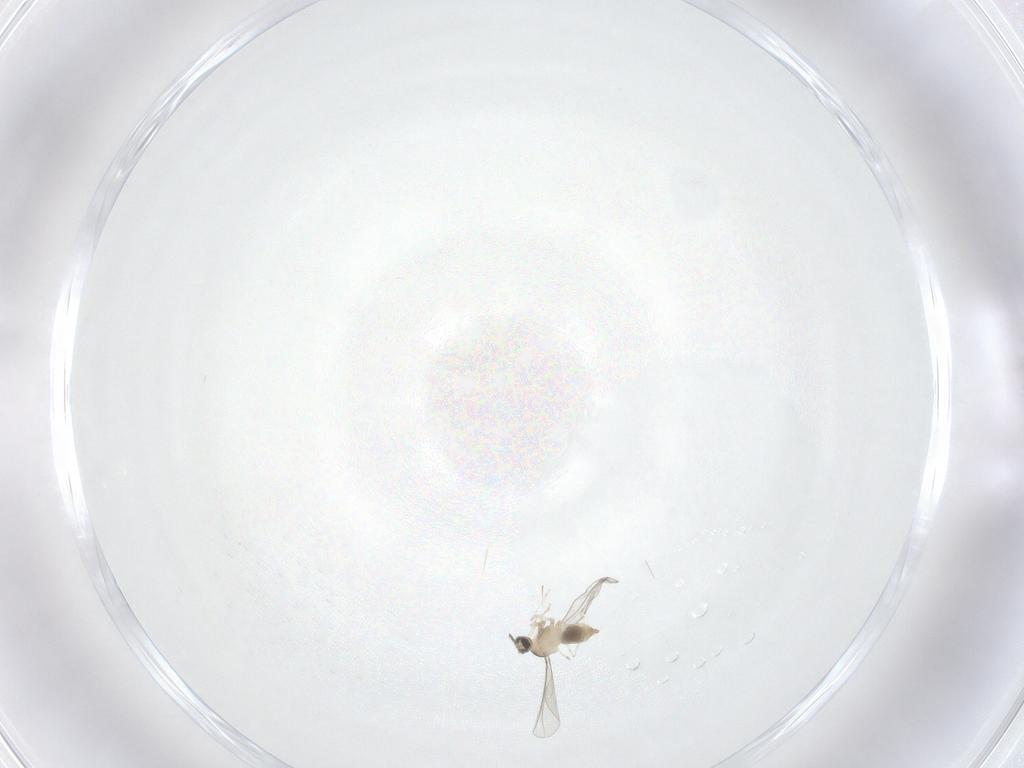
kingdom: Animalia
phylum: Arthropoda
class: Insecta
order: Diptera
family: Cecidomyiidae
